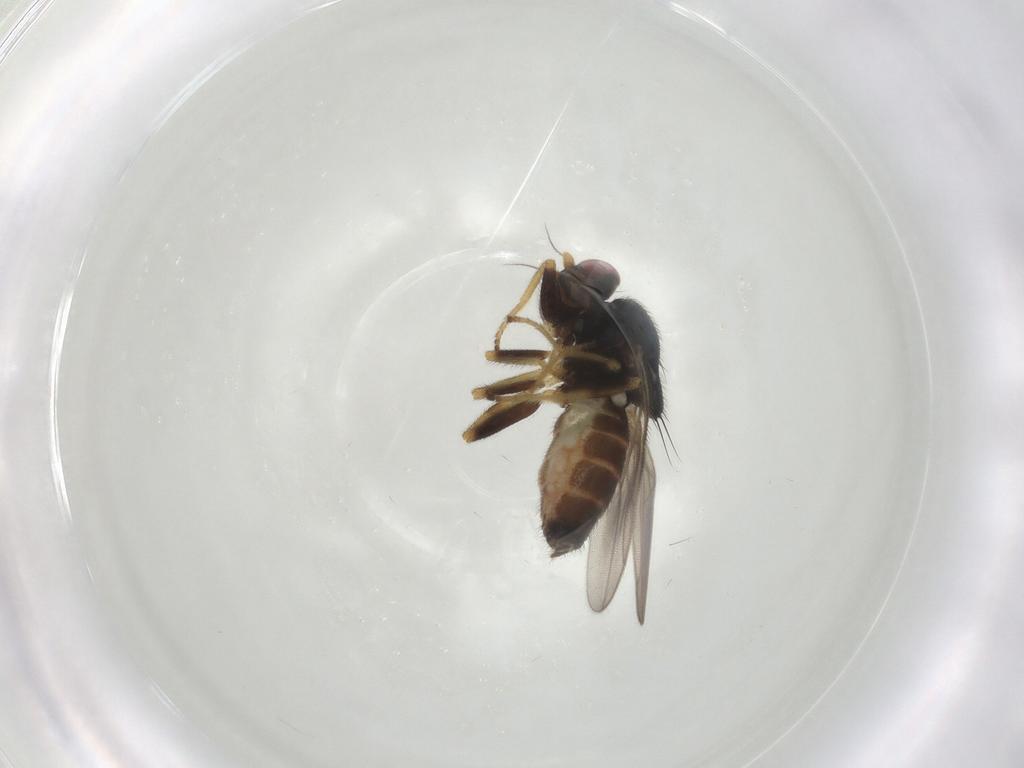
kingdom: Animalia
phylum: Arthropoda
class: Insecta
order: Diptera
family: Chloropidae
